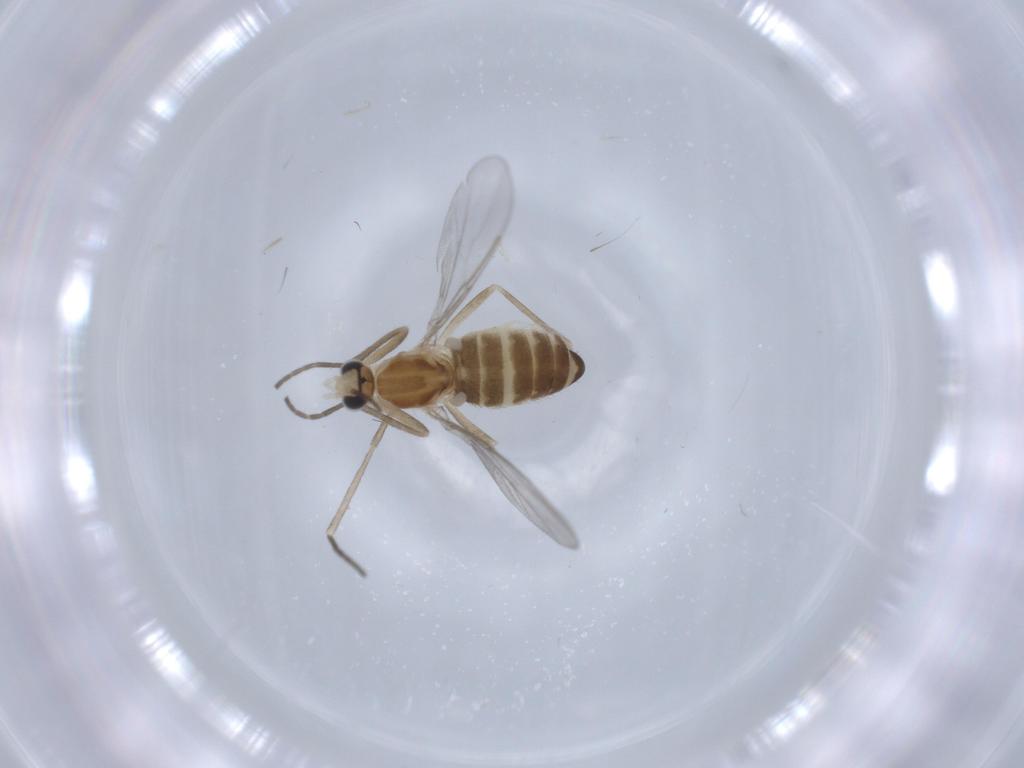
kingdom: Animalia
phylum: Arthropoda
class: Insecta
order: Diptera
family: Cecidomyiidae
